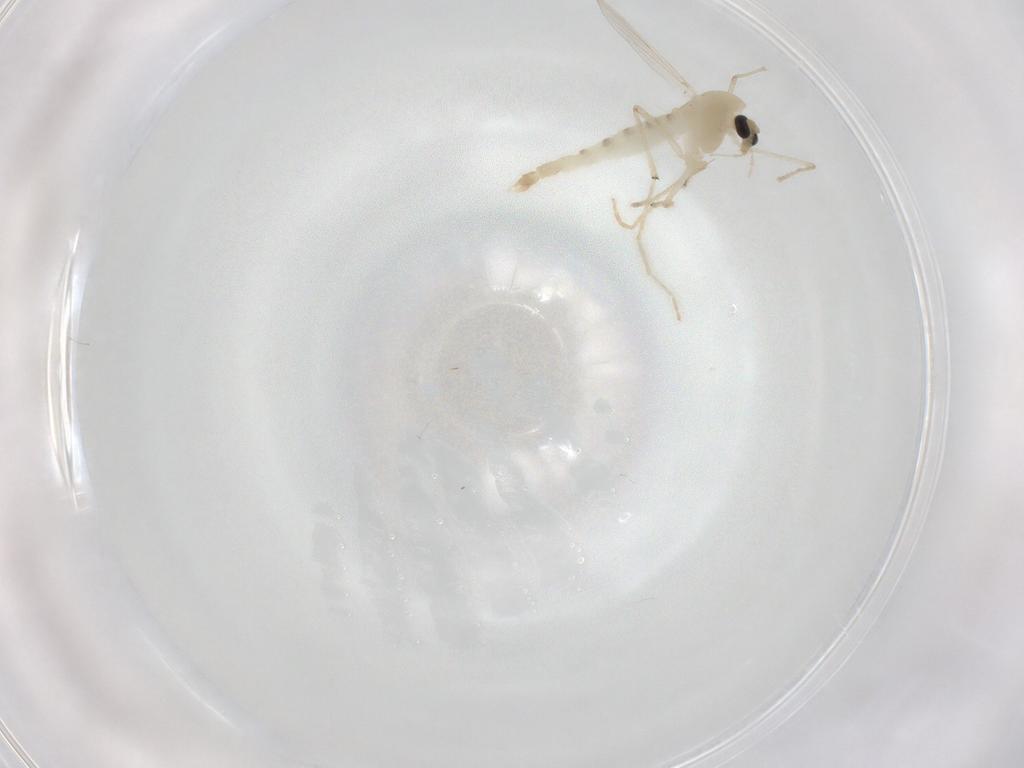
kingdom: Animalia
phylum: Arthropoda
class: Insecta
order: Diptera
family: Chironomidae
